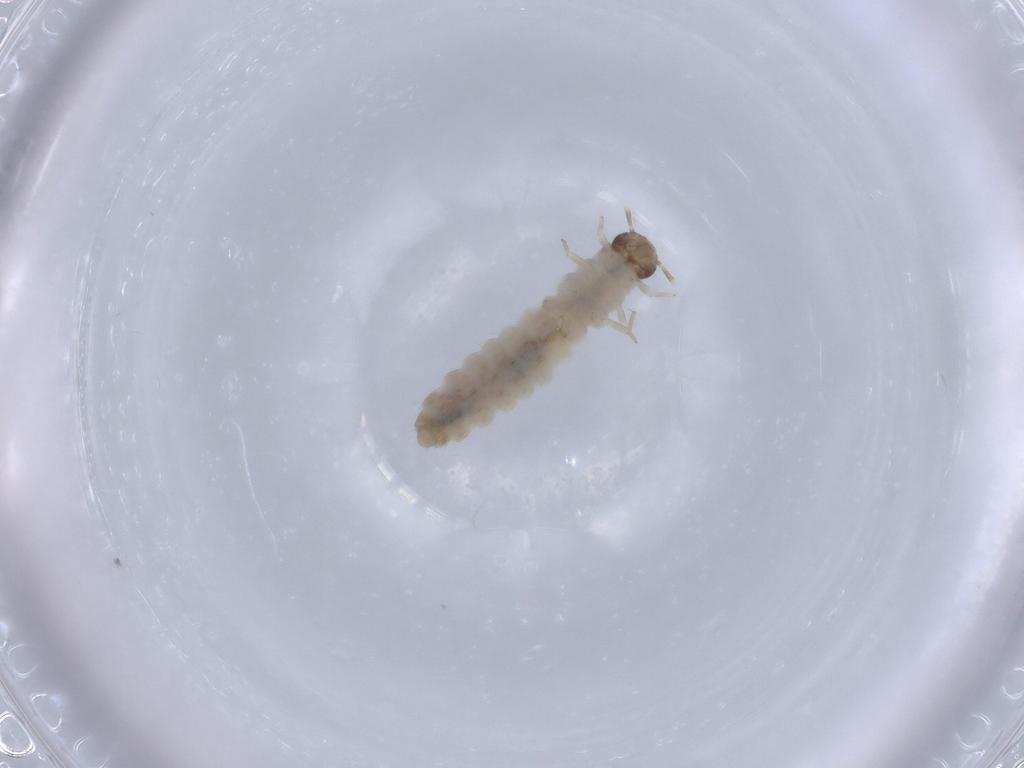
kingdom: Animalia
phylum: Arthropoda
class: Insecta
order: Coleoptera
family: Silvanidae
